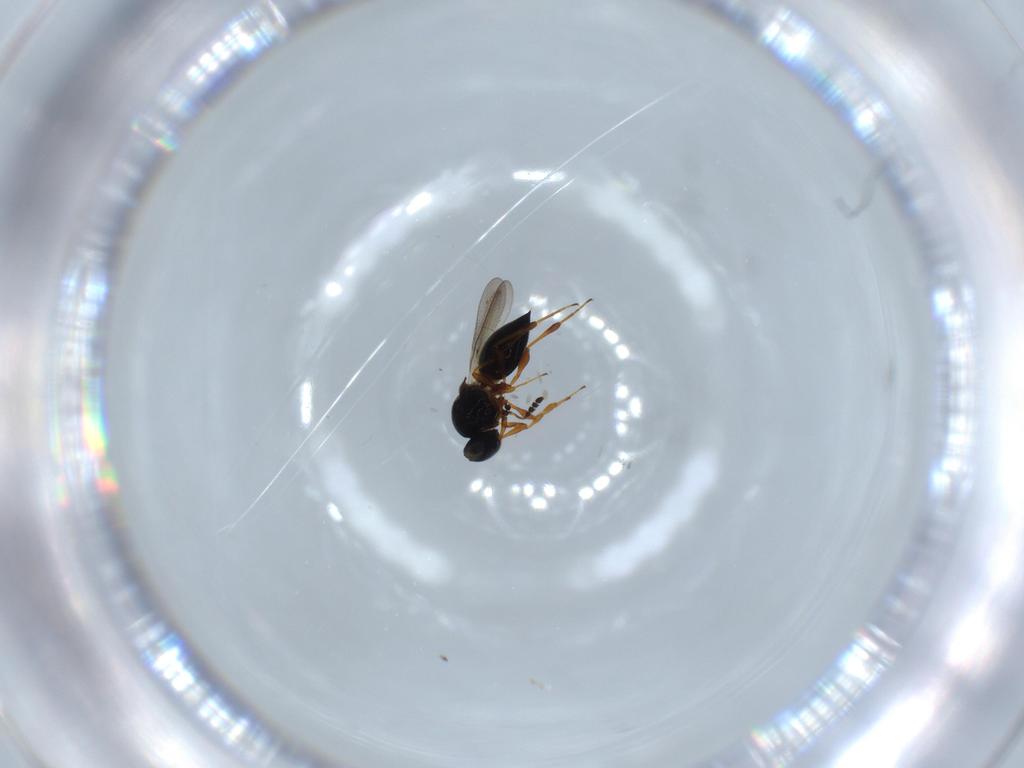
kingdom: Animalia
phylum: Arthropoda
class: Insecta
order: Hymenoptera
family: Platygastridae
